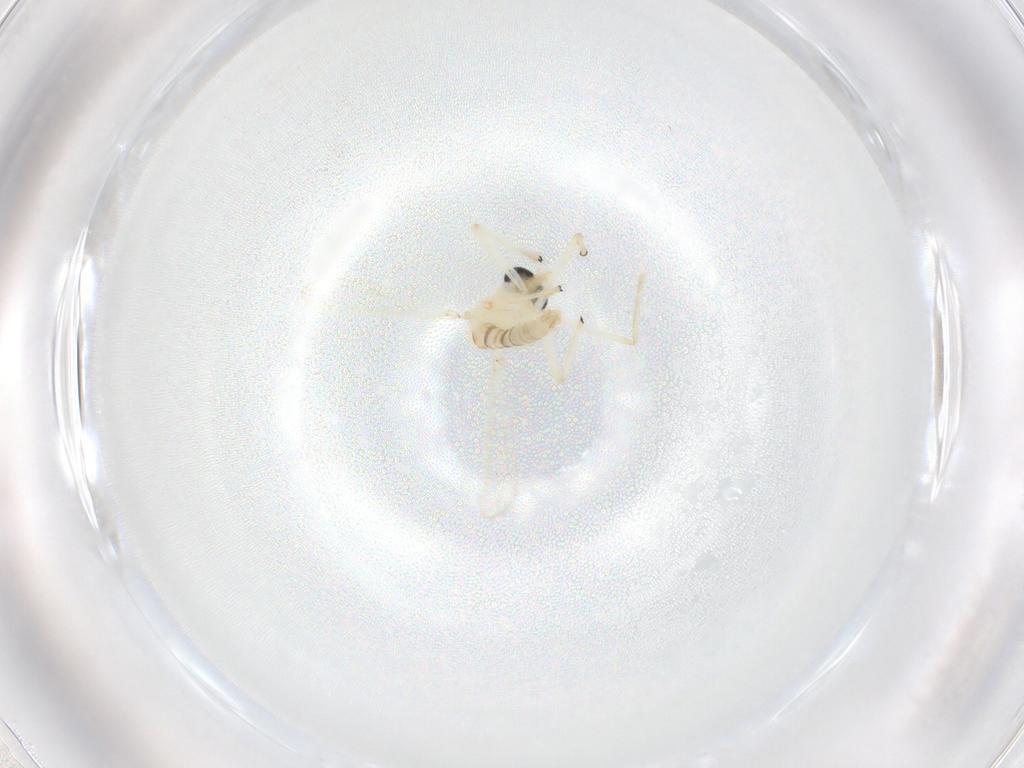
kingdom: Animalia
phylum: Arthropoda
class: Insecta
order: Diptera
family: Chironomidae
